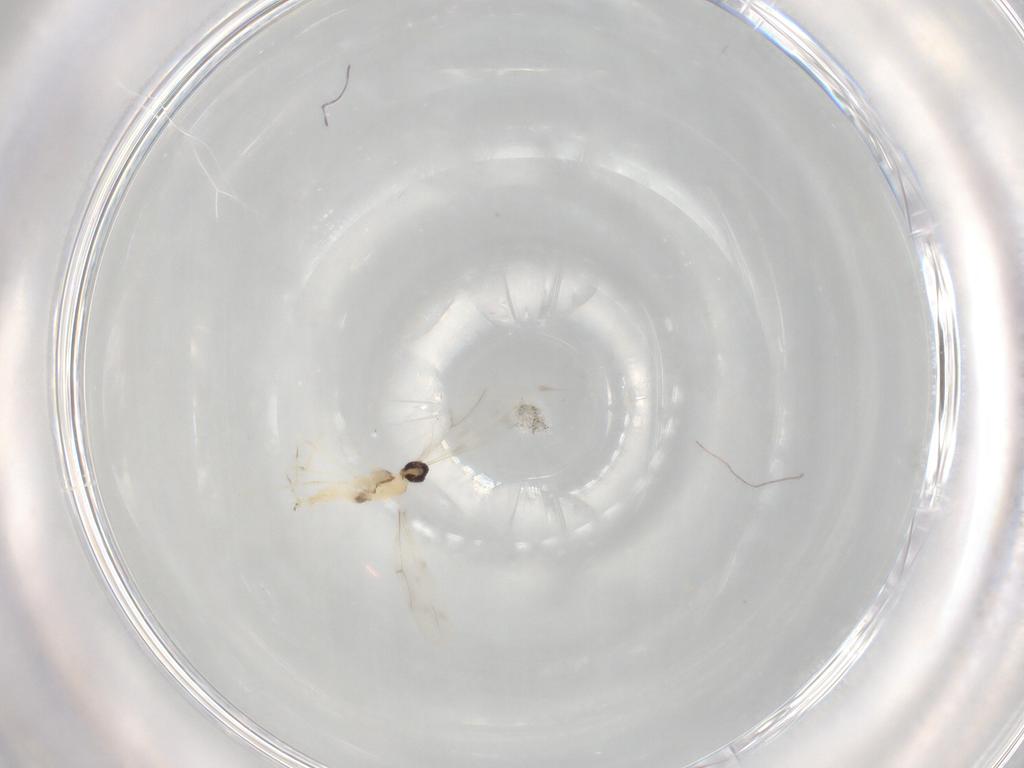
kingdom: Animalia
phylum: Arthropoda
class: Insecta
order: Diptera
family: Cecidomyiidae
